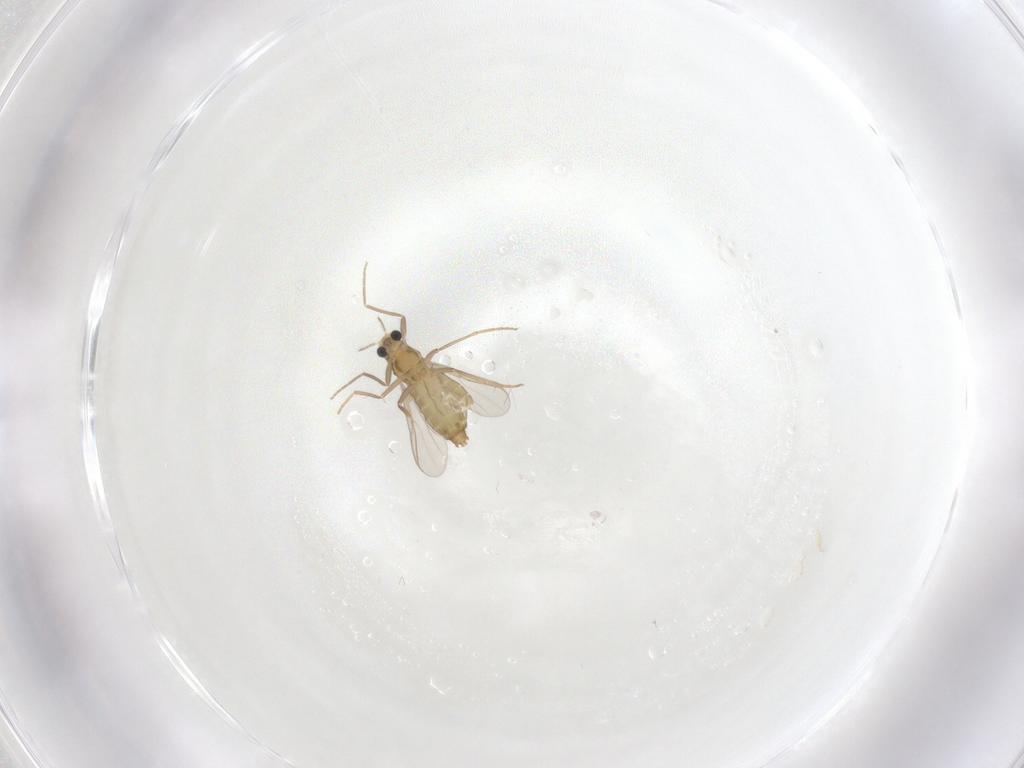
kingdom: Animalia
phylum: Arthropoda
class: Insecta
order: Diptera
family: Chironomidae
